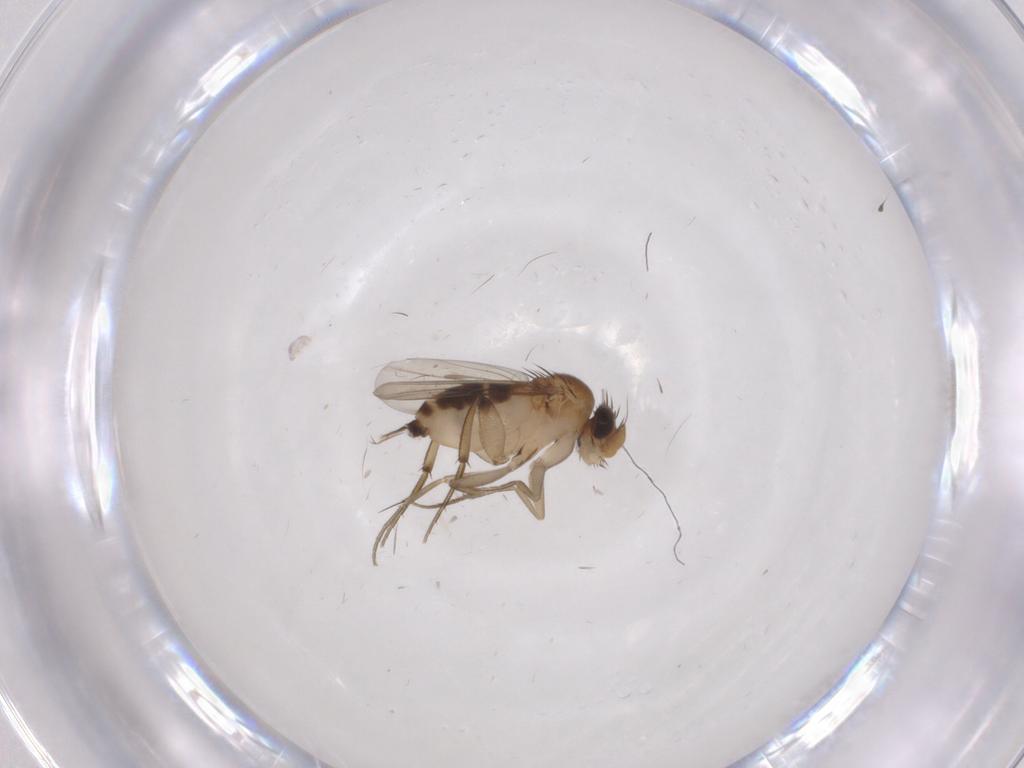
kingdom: Animalia
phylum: Arthropoda
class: Insecta
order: Diptera
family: Phoridae
